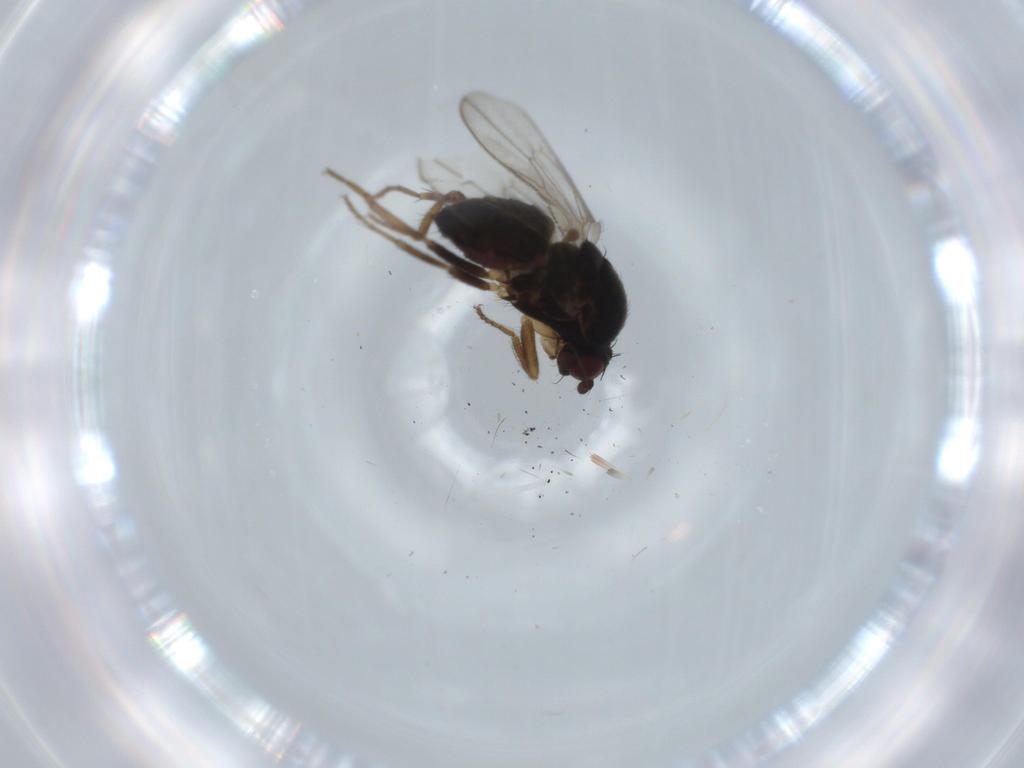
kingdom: Animalia
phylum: Arthropoda
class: Insecta
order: Diptera
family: Sphaeroceridae
